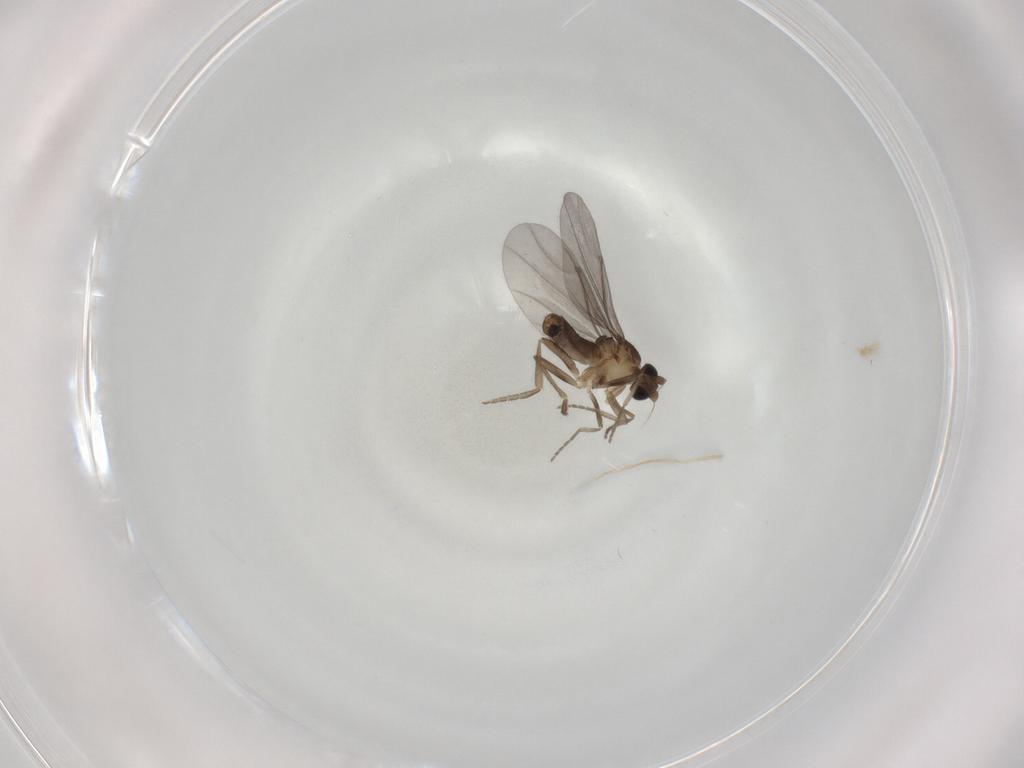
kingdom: Animalia
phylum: Arthropoda
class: Insecta
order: Diptera
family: Phoridae
